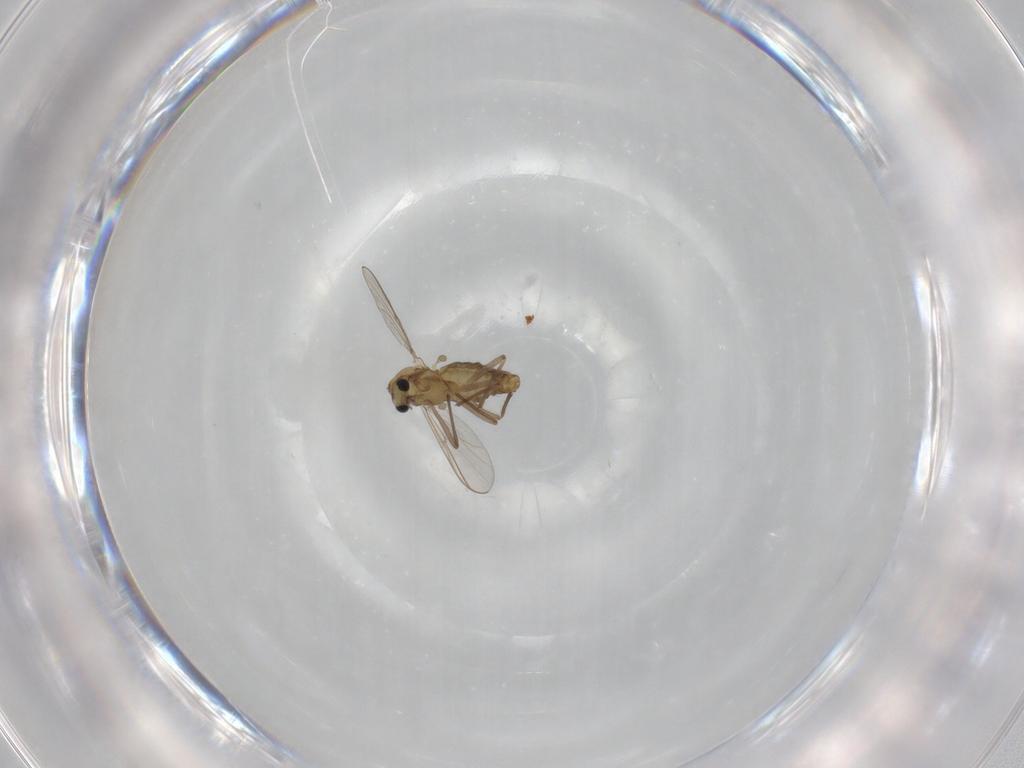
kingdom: Animalia
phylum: Arthropoda
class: Insecta
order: Diptera
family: Chironomidae
